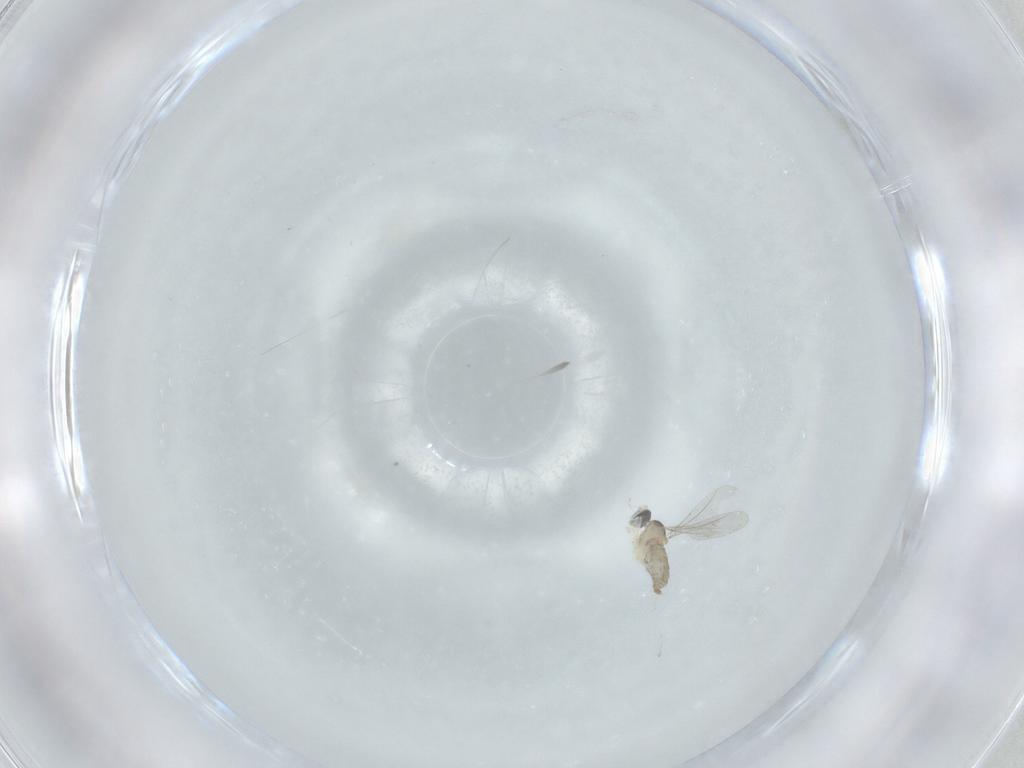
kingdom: Animalia
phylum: Arthropoda
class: Insecta
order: Diptera
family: Cecidomyiidae
